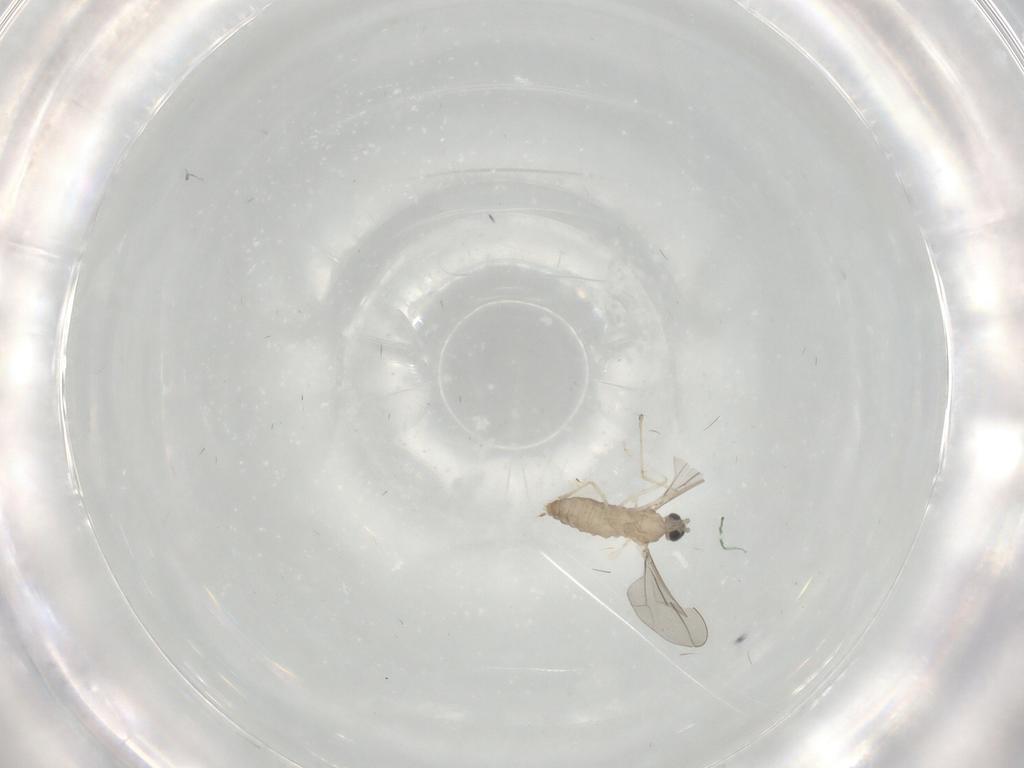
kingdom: Animalia
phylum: Arthropoda
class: Insecta
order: Diptera
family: Cecidomyiidae
